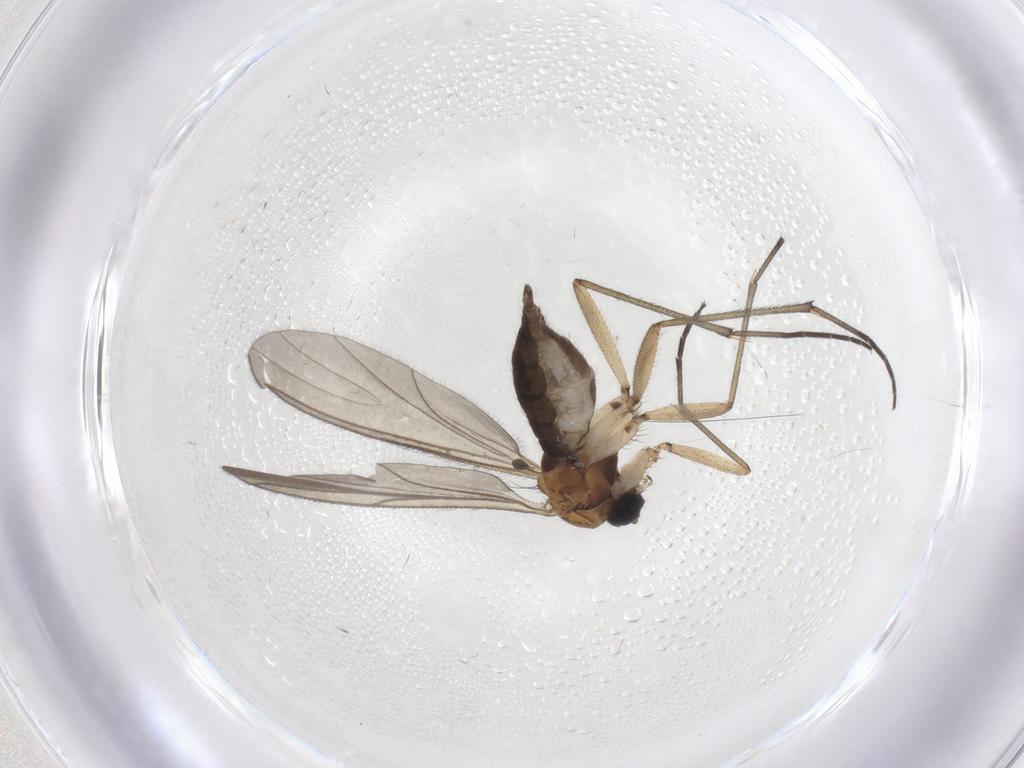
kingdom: Animalia
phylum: Arthropoda
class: Insecta
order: Diptera
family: Sciaridae
